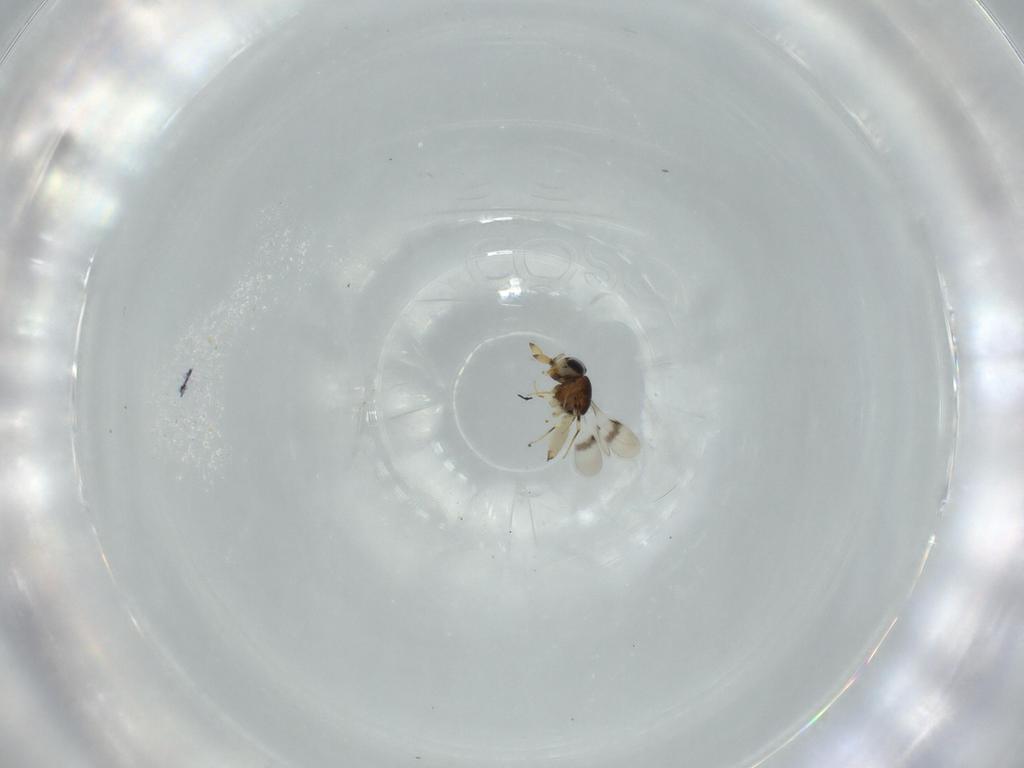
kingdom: Animalia
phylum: Arthropoda
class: Insecta
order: Hymenoptera
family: Scelionidae
